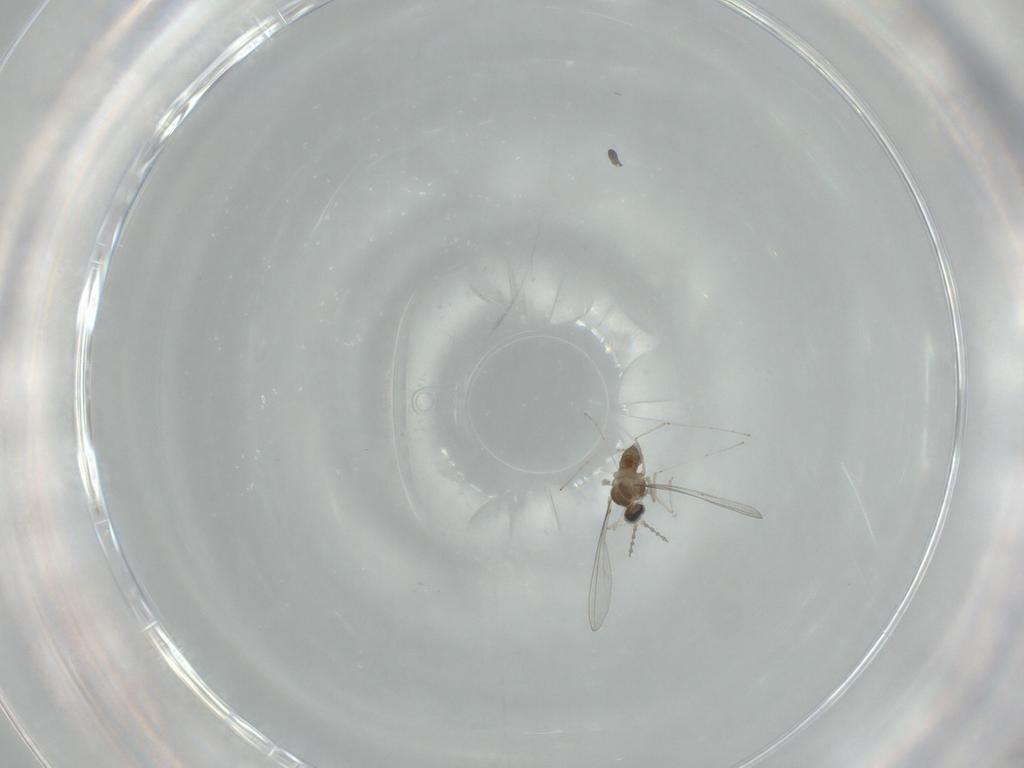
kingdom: Animalia
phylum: Arthropoda
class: Insecta
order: Diptera
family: Cecidomyiidae
